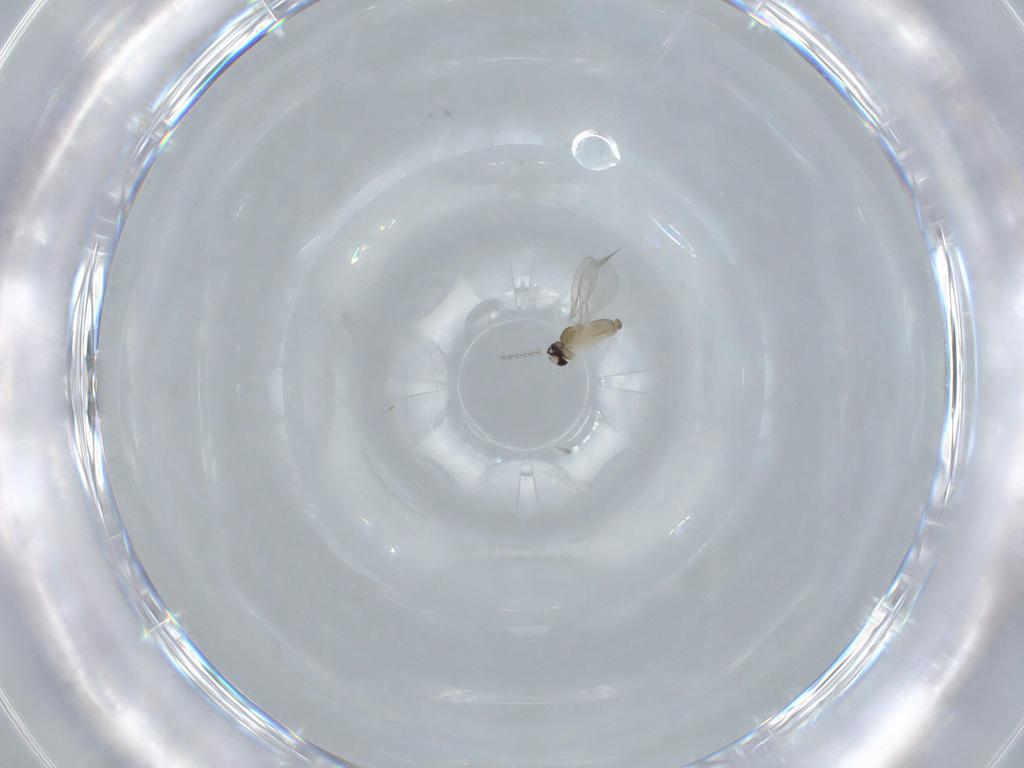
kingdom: Animalia
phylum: Arthropoda
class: Insecta
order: Diptera
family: Cecidomyiidae
